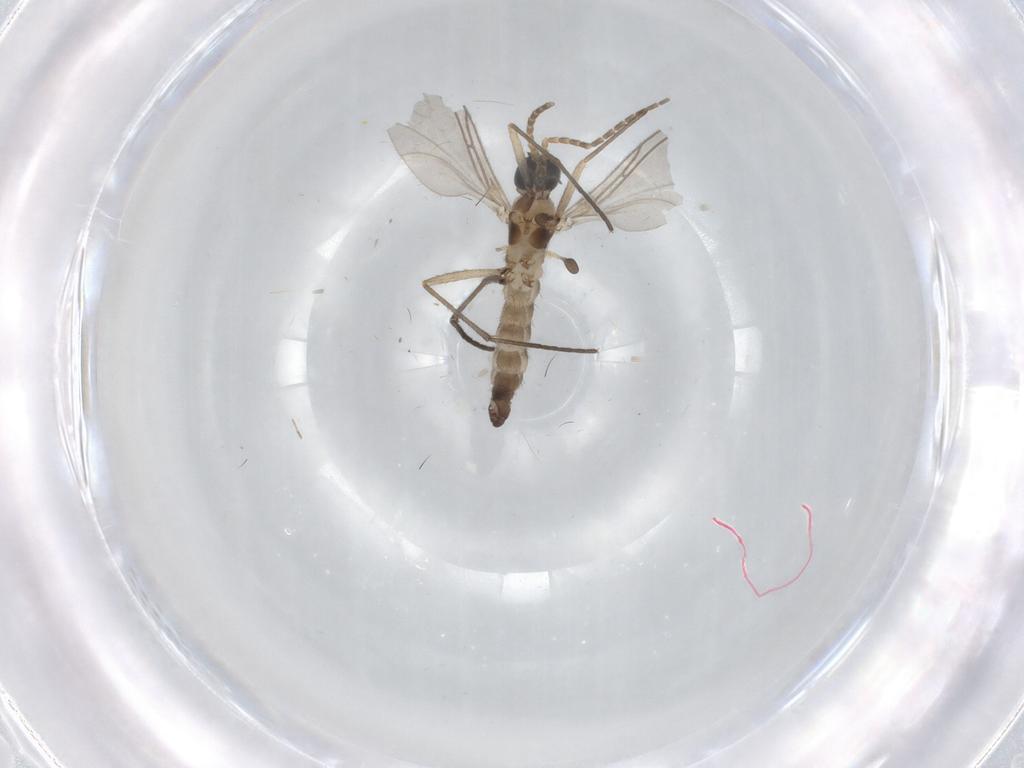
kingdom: Animalia
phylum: Arthropoda
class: Insecta
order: Diptera
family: Sciaridae
